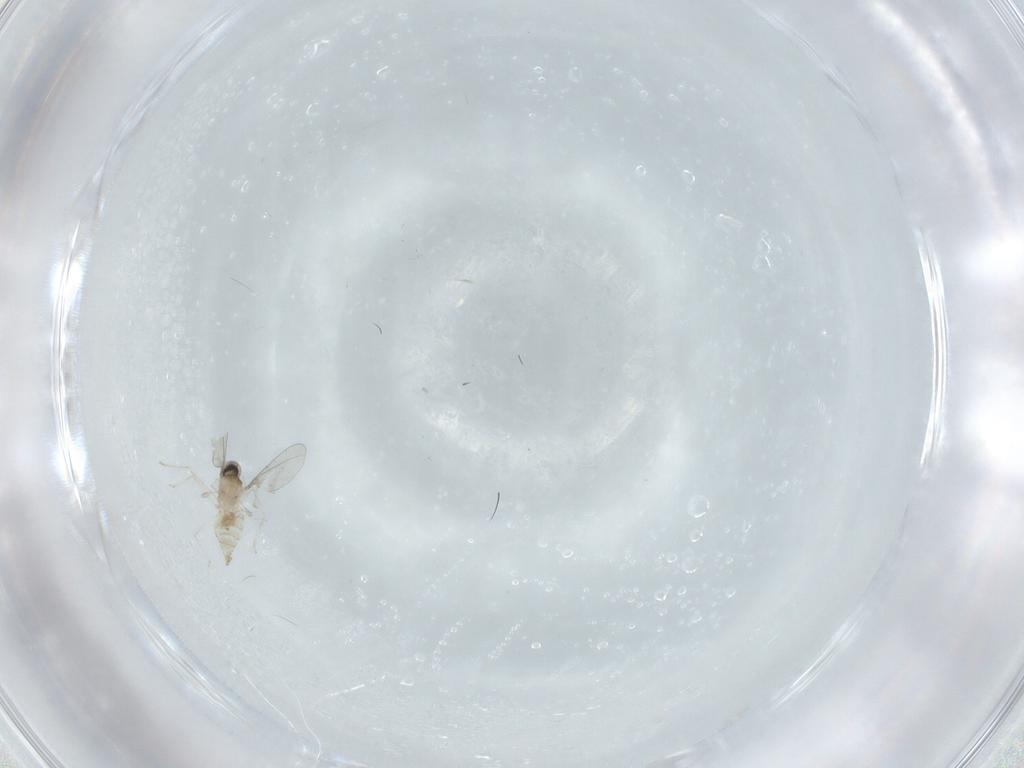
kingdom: Animalia
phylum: Arthropoda
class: Insecta
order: Diptera
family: Cecidomyiidae
